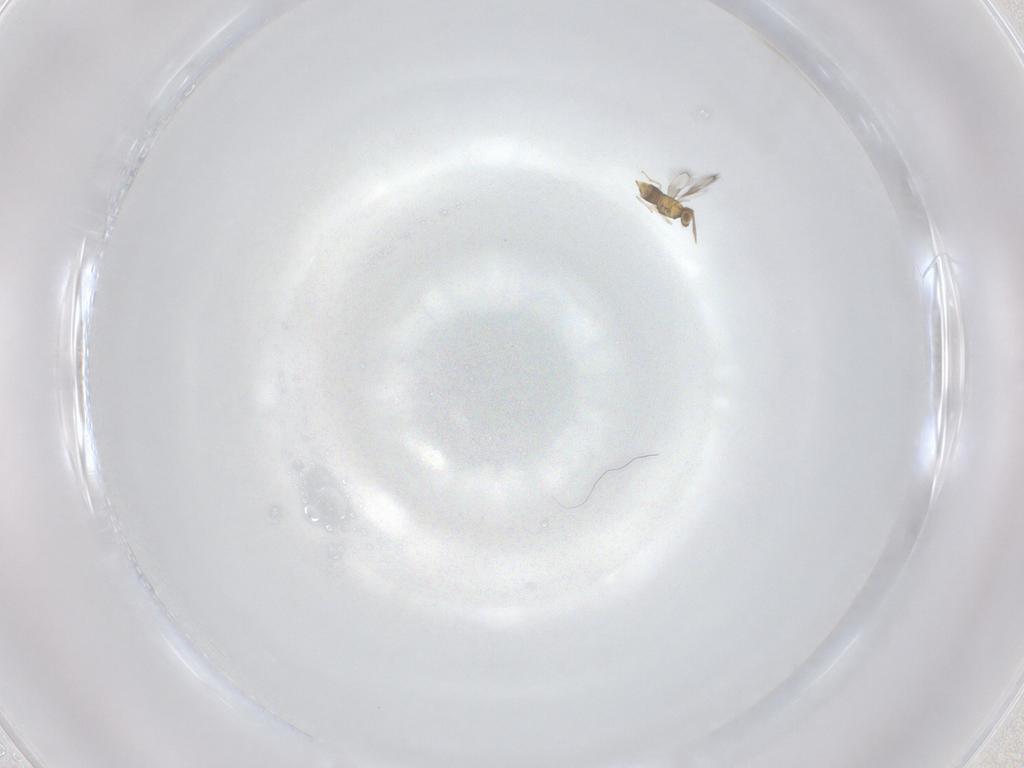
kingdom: Animalia
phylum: Arthropoda
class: Insecta
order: Hymenoptera
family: Aphelinidae
